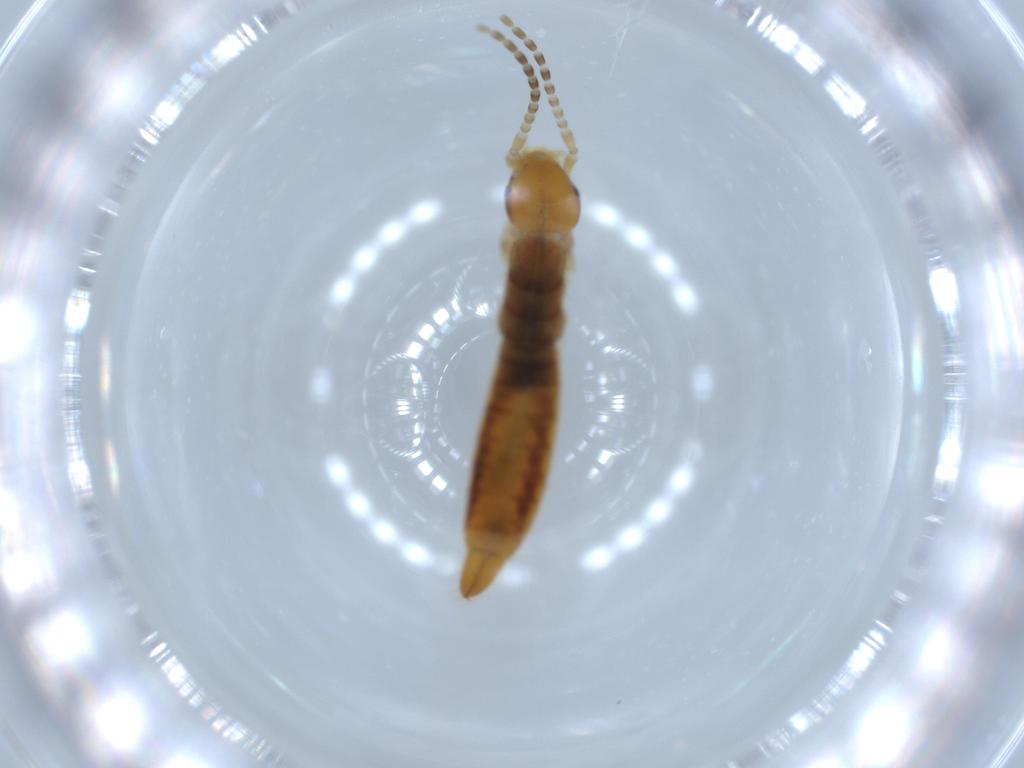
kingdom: Animalia
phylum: Arthropoda
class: Insecta
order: Dermaptera
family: Forficulidae
